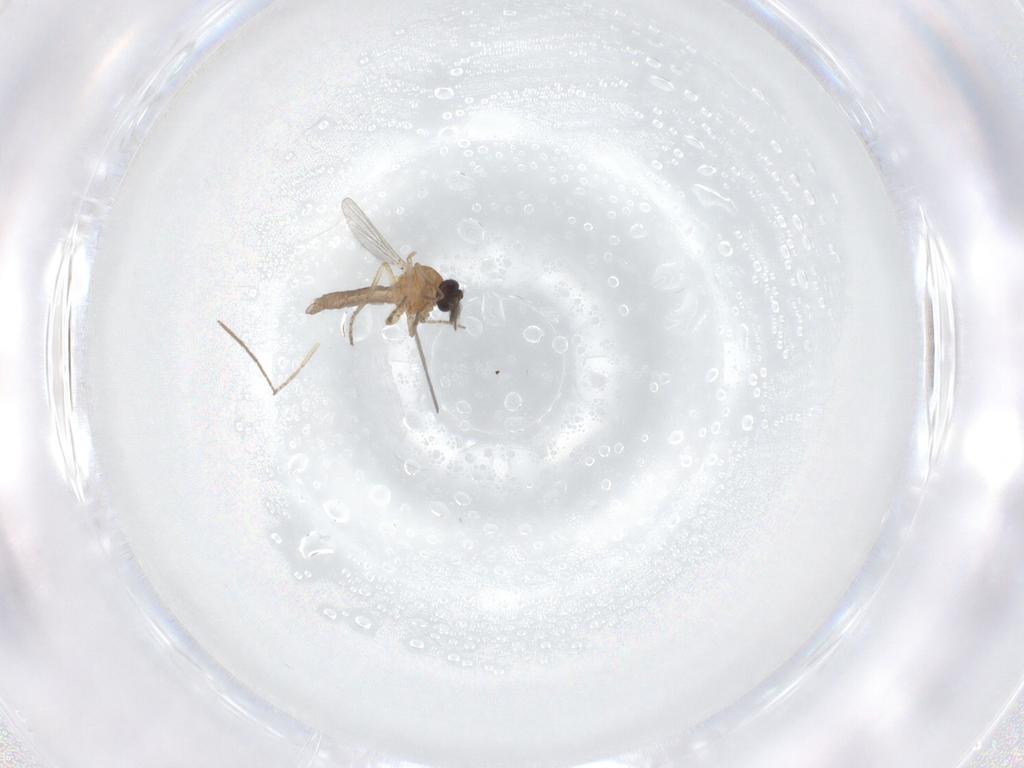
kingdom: Animalia
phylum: Arthropoda
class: Insecta
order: Diptera
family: Ceratopogonidae
